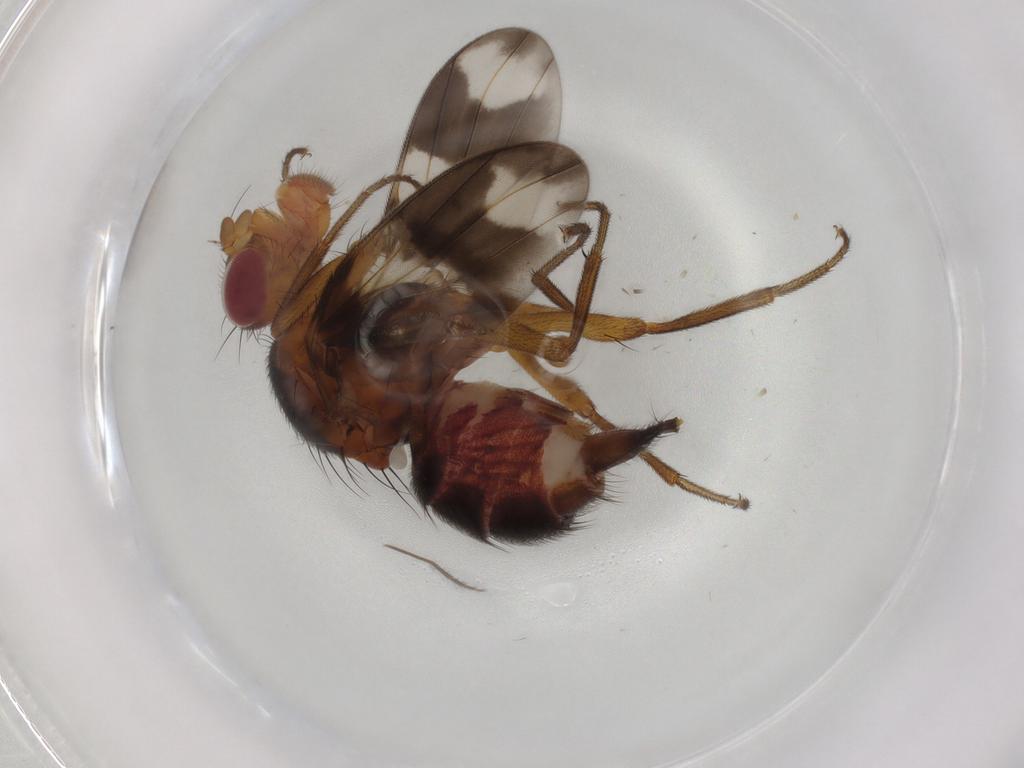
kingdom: Animalia
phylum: Arthropoda
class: Insecta
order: Diptera
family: Richardiidae
